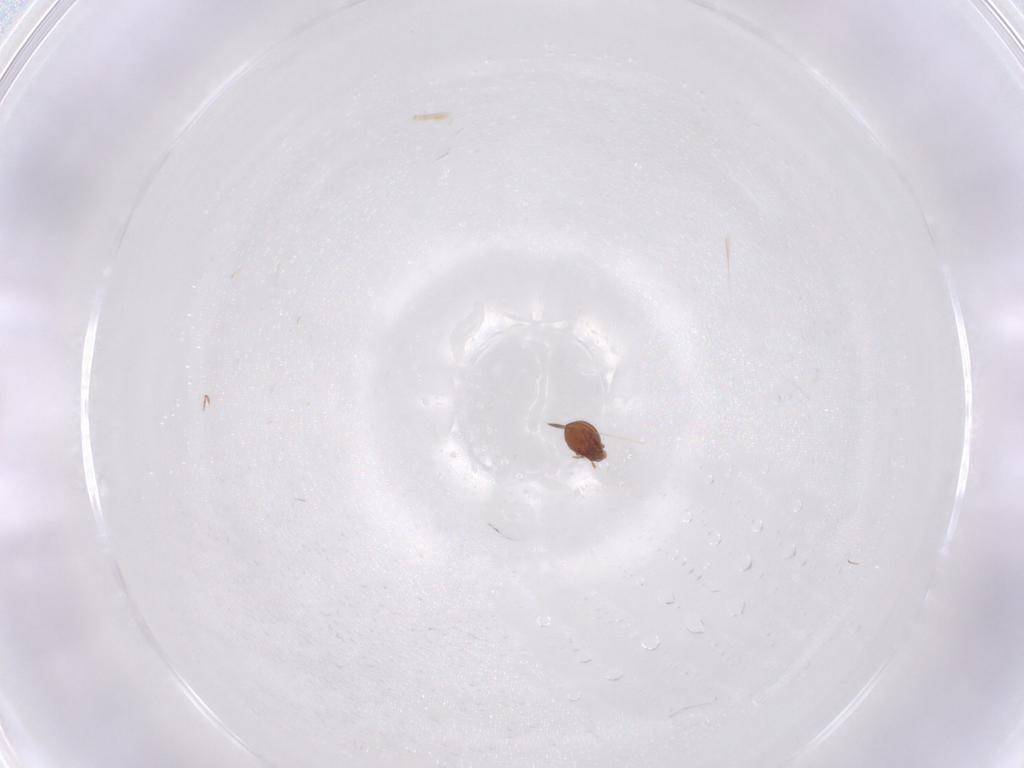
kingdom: Animalia
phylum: Arthropoda
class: Arachnida
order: Sarcoptiformes
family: Oribatulidae
